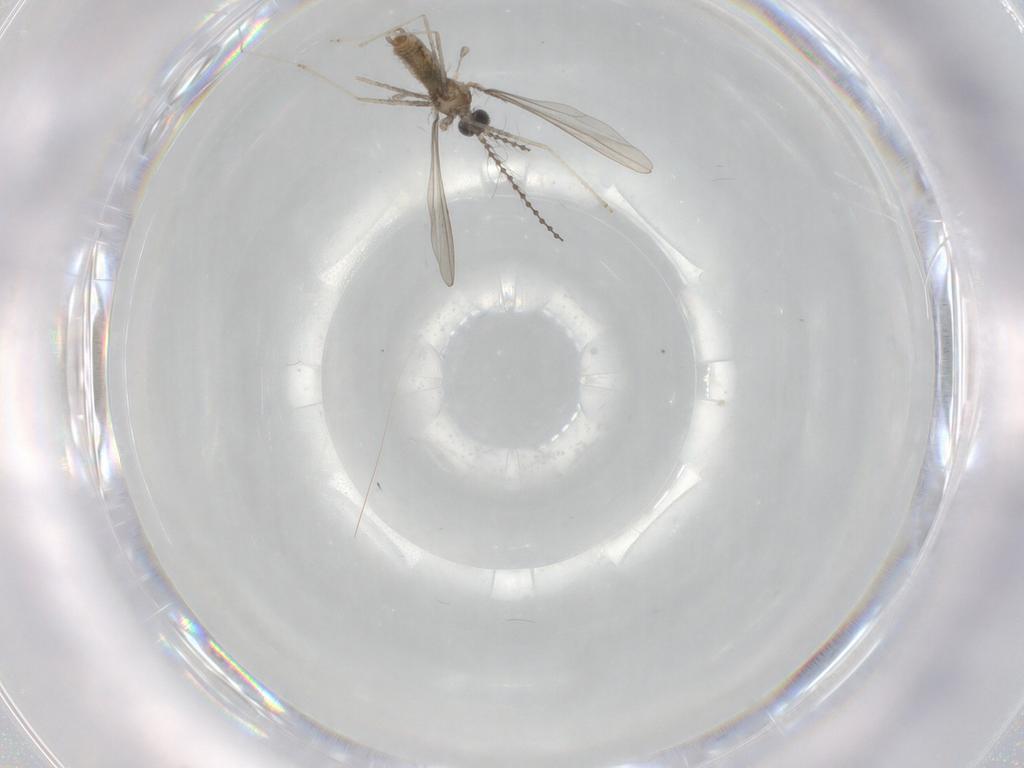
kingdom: Animalia
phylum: Arthropoda
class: Insecta
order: Diptera
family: Cecidomyiidae
